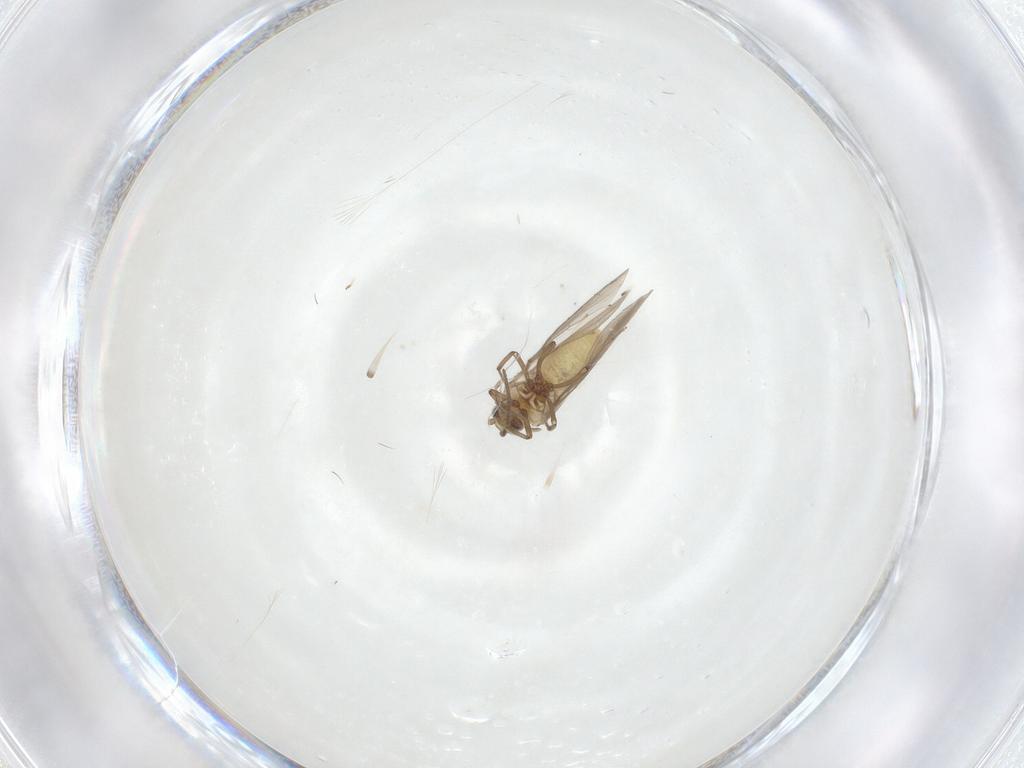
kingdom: Animalia
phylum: Arthropoda
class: Insecta
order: Neuroptera
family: Coniopterygidae
